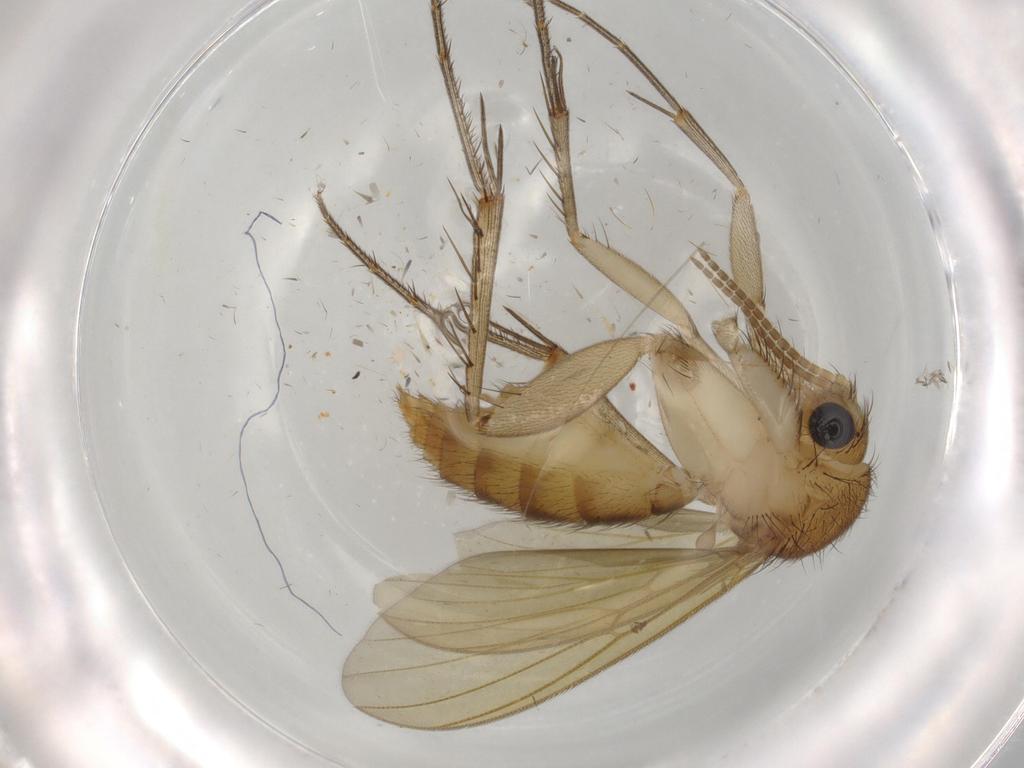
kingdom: Animalia
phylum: Arthropoda
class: Insecta
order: Diptera
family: Mycetophilidae
